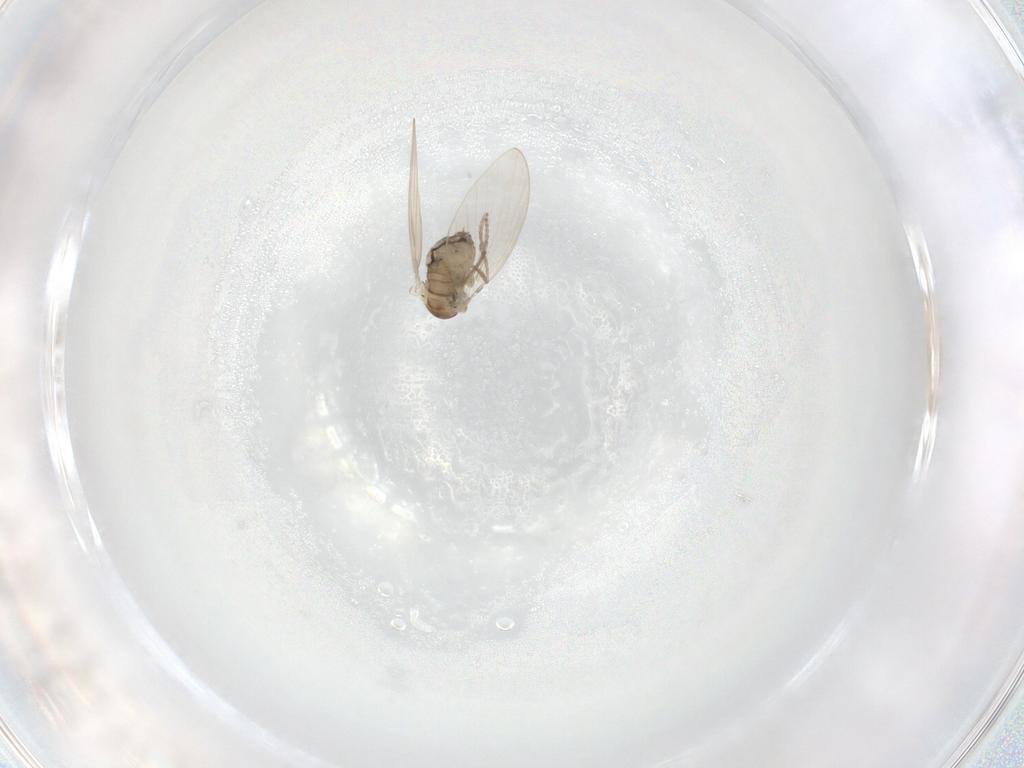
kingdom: Animalia
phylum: Arthropoda
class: Insecta
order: Diptera
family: Psychodidae
